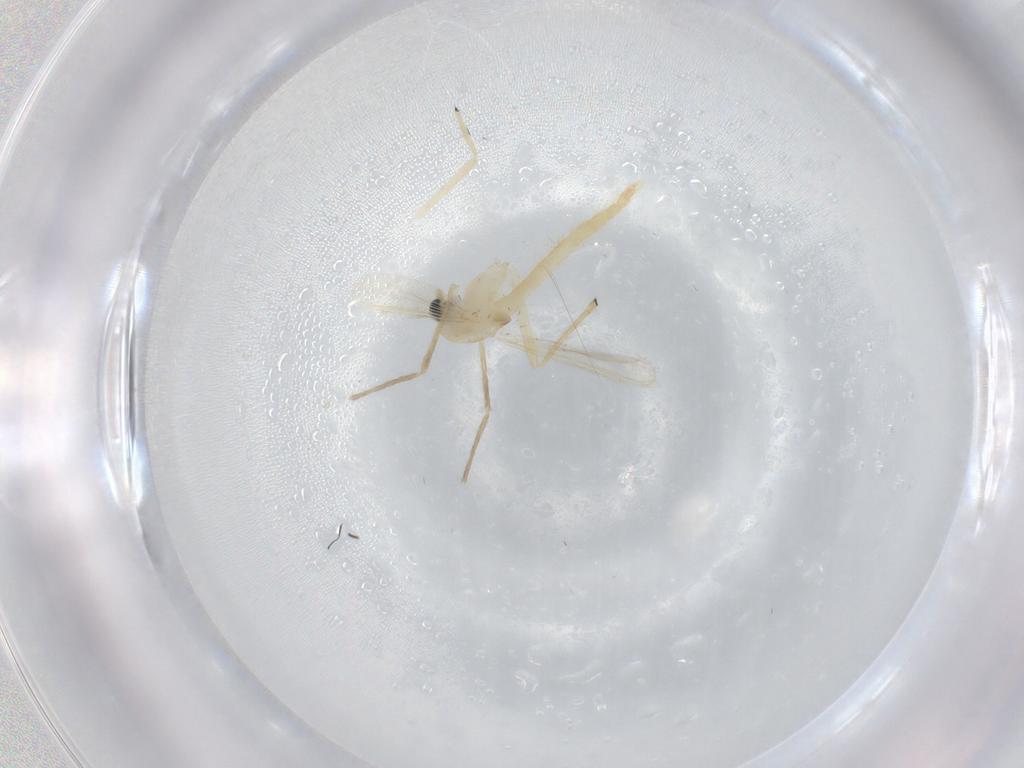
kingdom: Animalia
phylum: Arthropoda
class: Insecta
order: Diptera
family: Chironomidae
